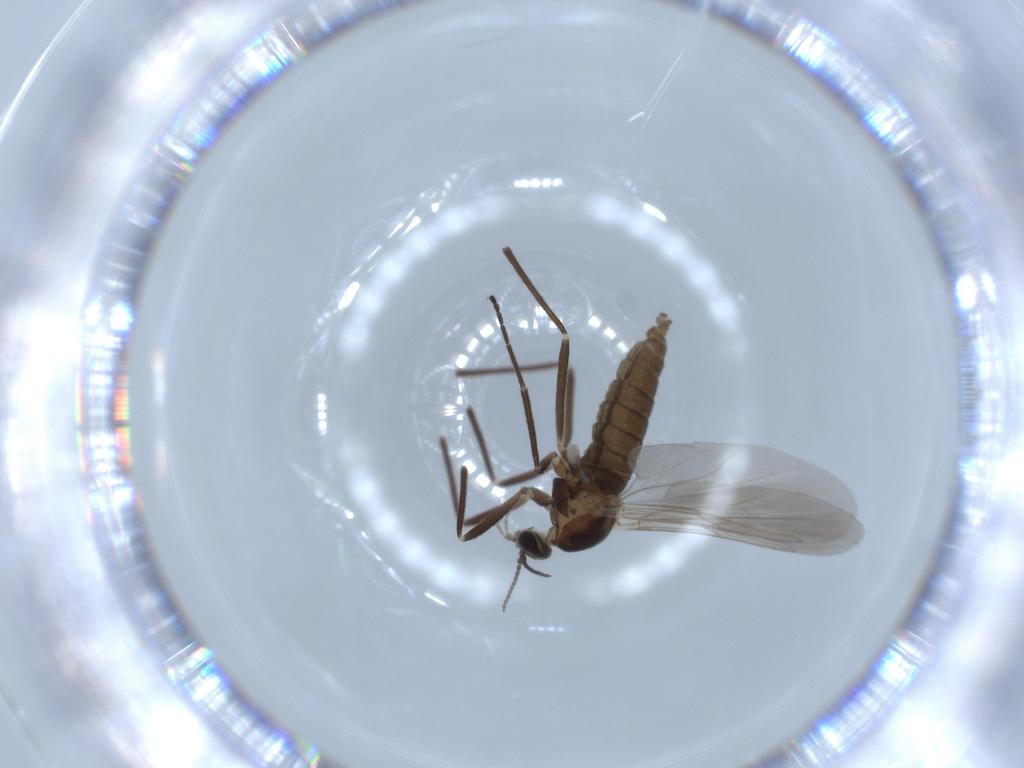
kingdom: Animalia
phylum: Arthropoda
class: Insecta
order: Diptera
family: Cecidomyiidae
